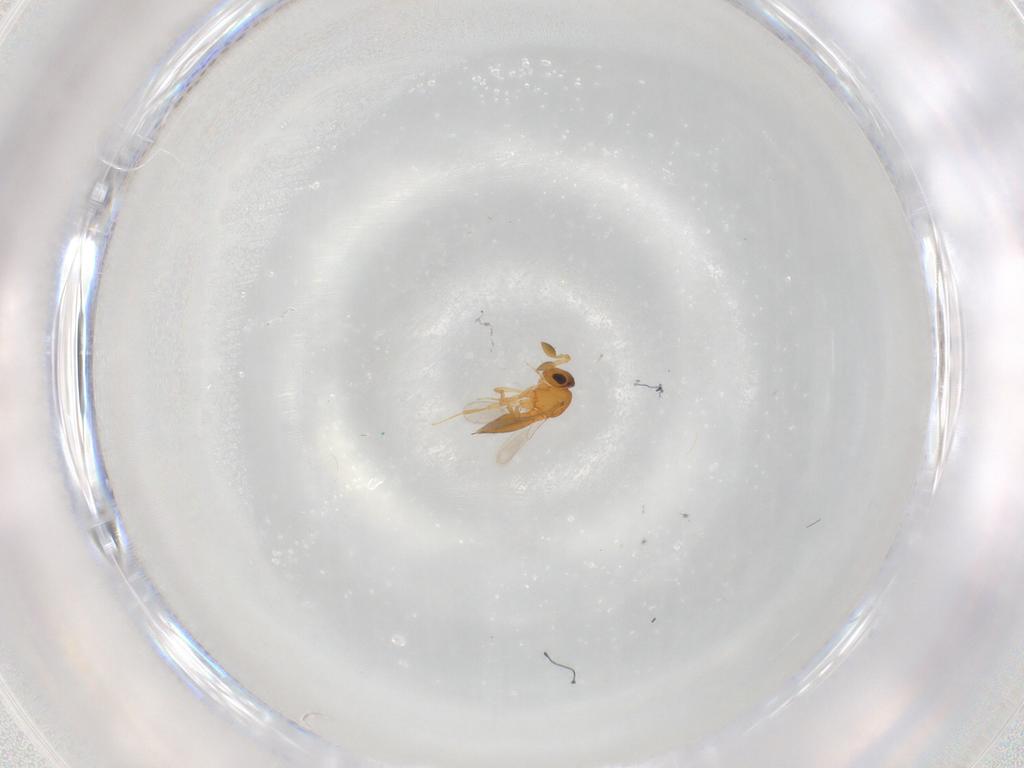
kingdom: Animalia
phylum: Arthropoda
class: Insecta
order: Hymenoptera
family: Scelionidae
